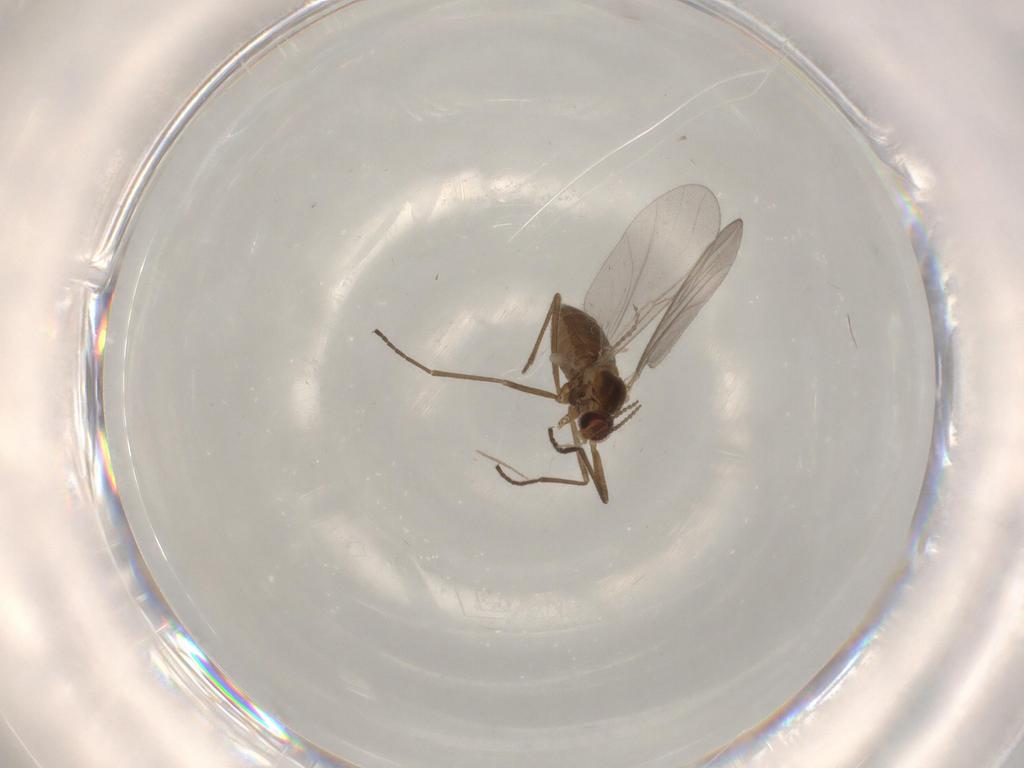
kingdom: Animalia
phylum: Arthropoda
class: Insecta
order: Diptera
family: Cecidomyiidae
